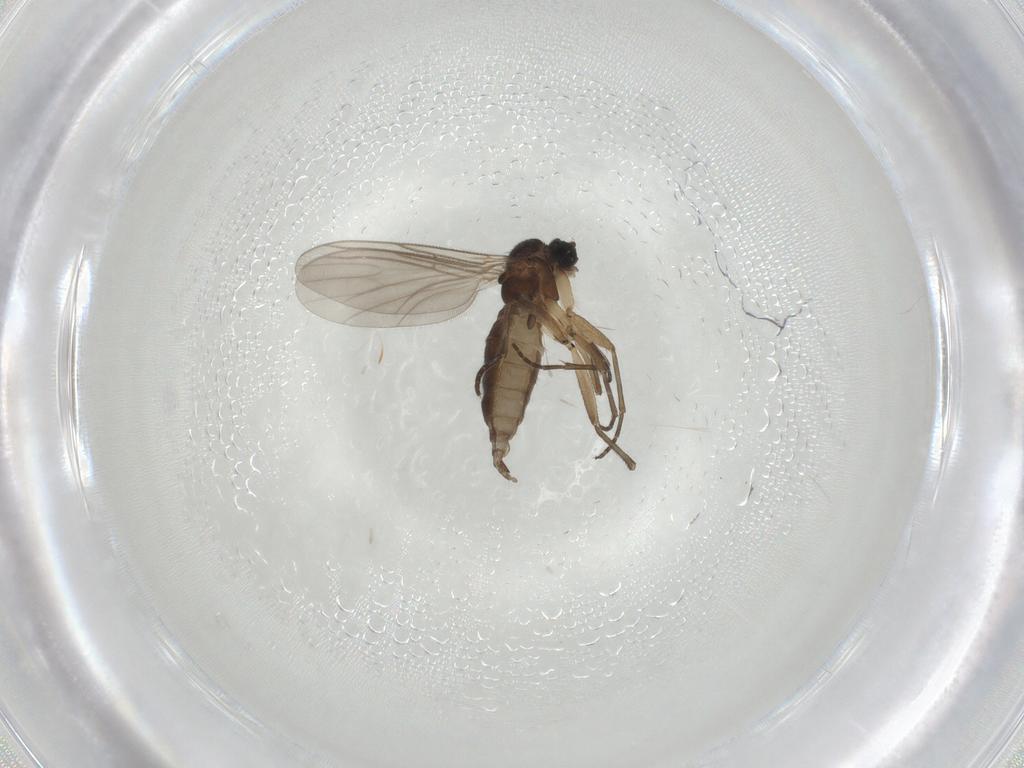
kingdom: Animalia
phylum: Arthropoda
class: Insecta
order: Diptera
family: Sciaridae
